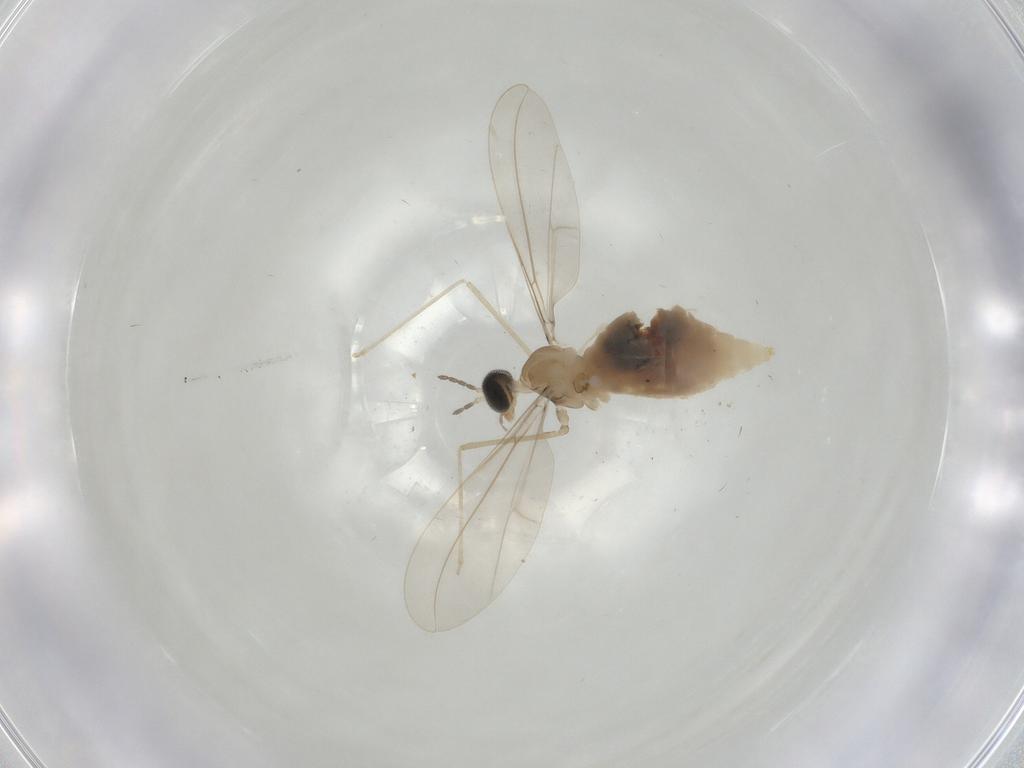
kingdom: Animalia
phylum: Arthropoda
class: Insecta
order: Diptera
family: Cecidomyiidae
